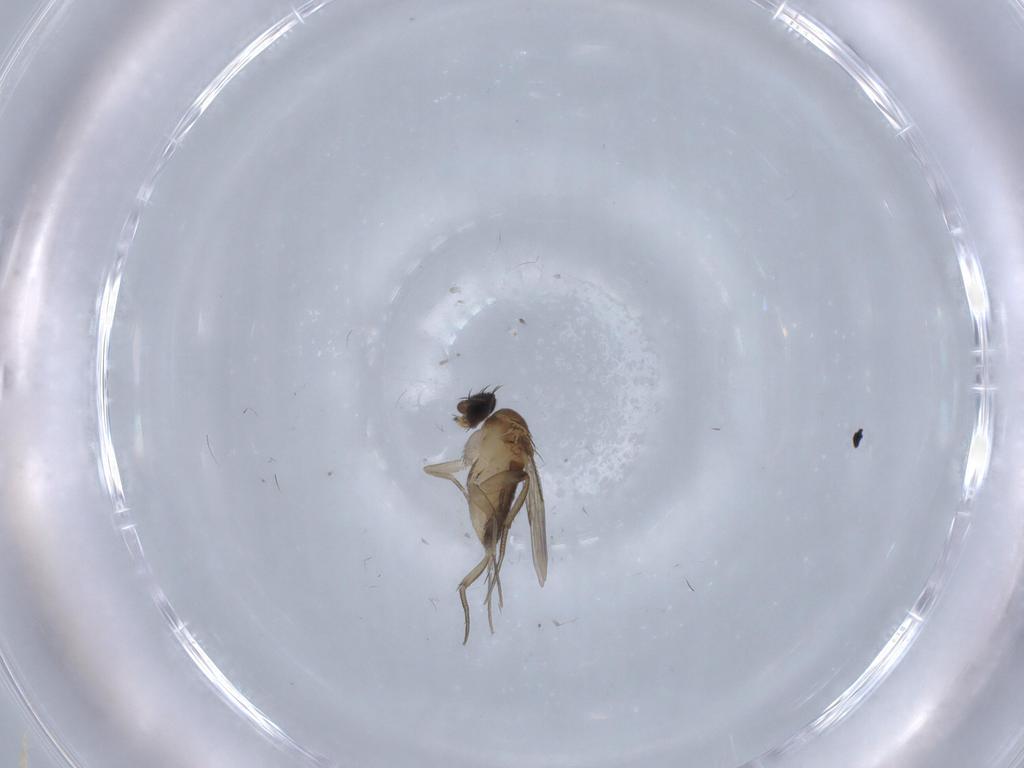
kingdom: Animalia
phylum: Arthropoda
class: Insecta
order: Diptera
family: Phoridae
